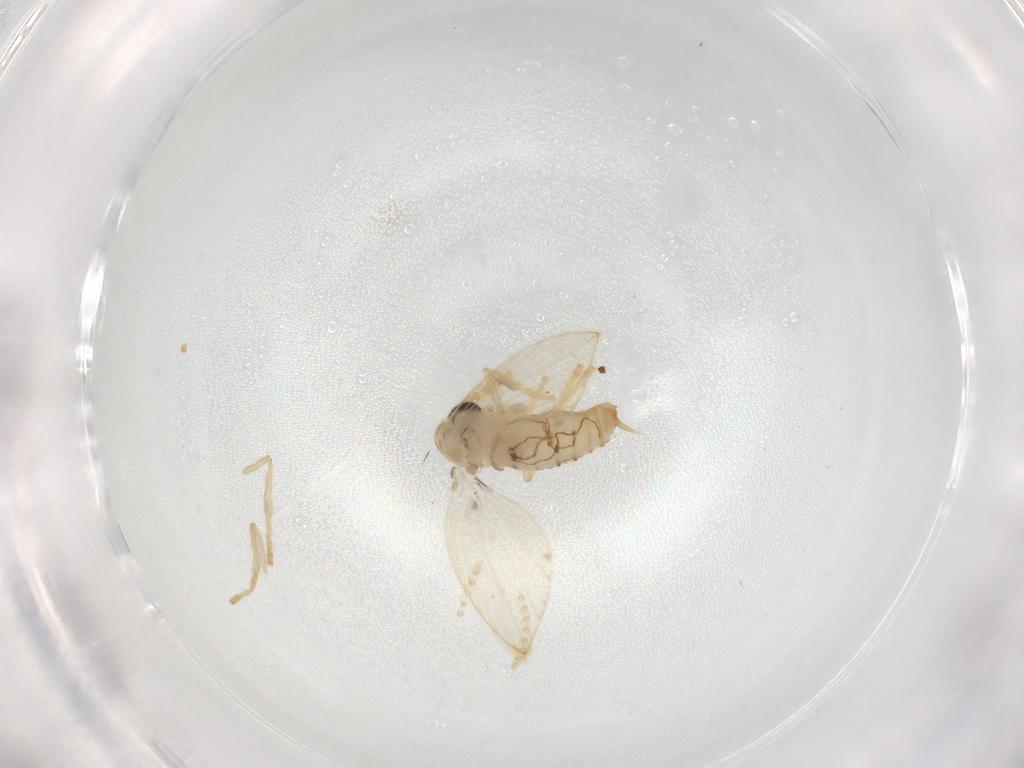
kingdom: Animalia
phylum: Arthropoda
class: Insecta
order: Diptera
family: Psychodidae
